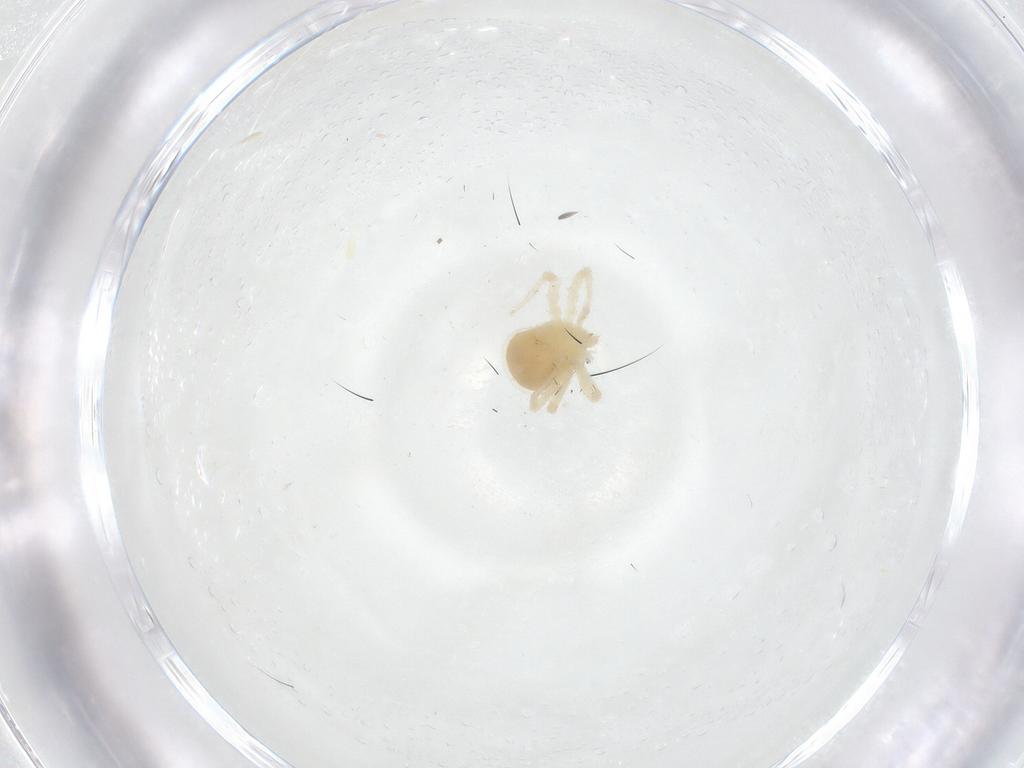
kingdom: Animalia
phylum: Arthropoda
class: Arachnida
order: Trombidiformes
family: Anystidae
